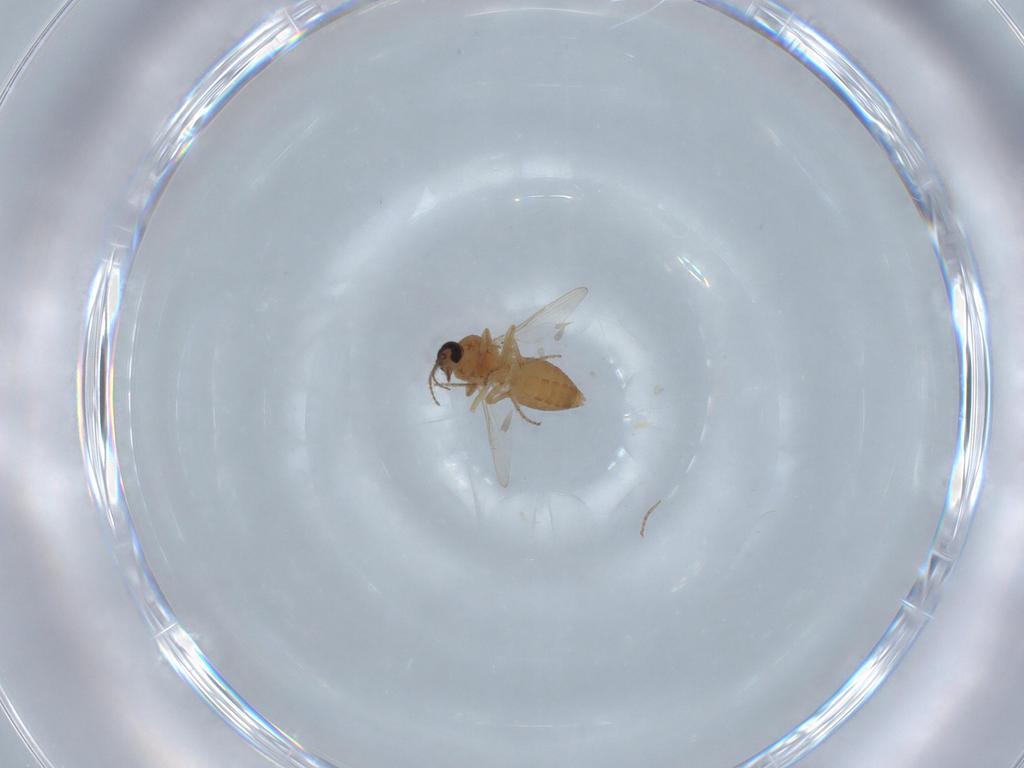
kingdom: Animalia
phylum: Arthropoda
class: Insecta
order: Diptera
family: Ceratopogonidae
